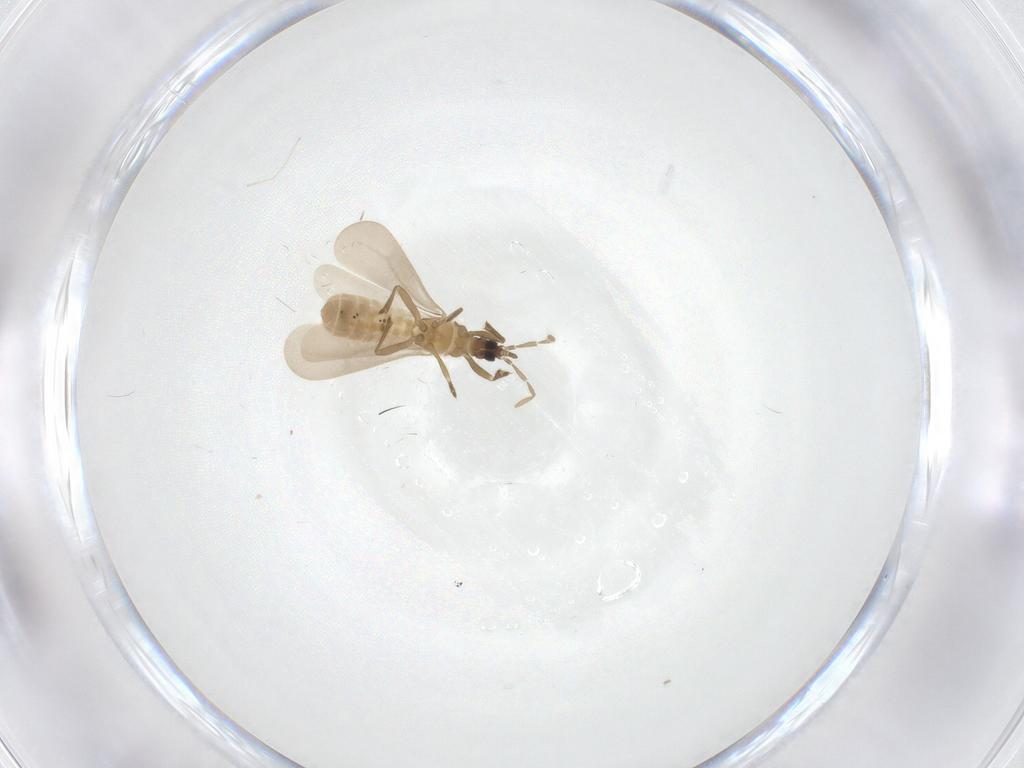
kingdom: Animalia
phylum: Arthropoda
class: Insecta
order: Hemiptera
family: Enicocephalidae
